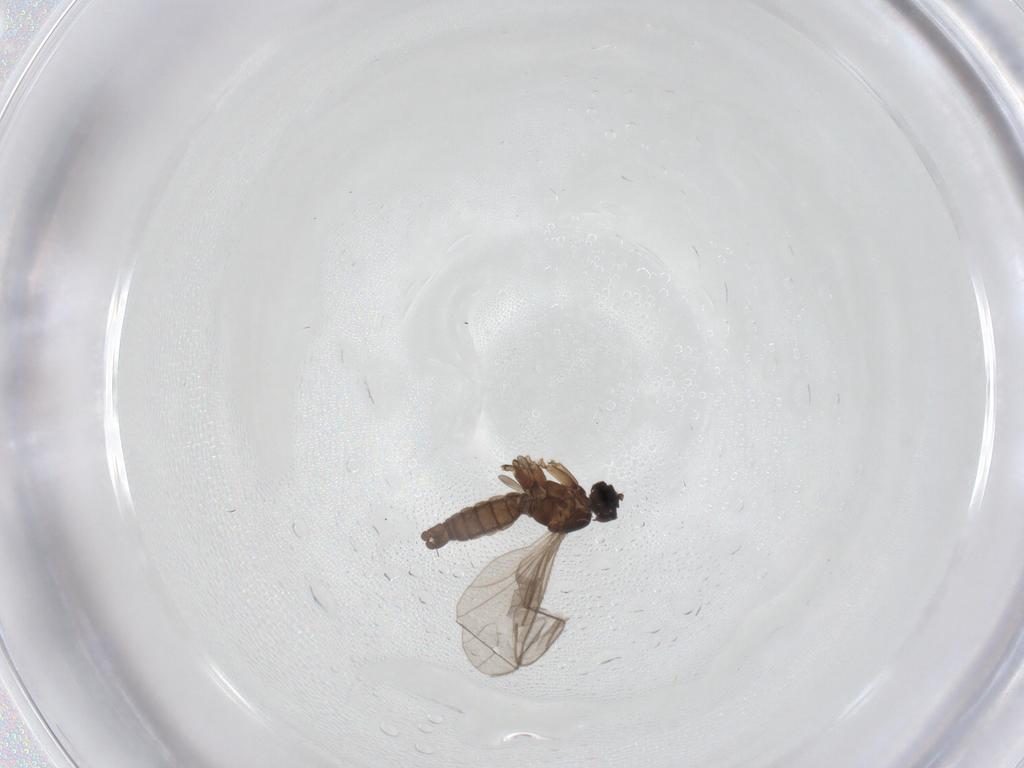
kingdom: Animalia
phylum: Arthropoda
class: Insecta
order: Diptera
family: Sciaridae
